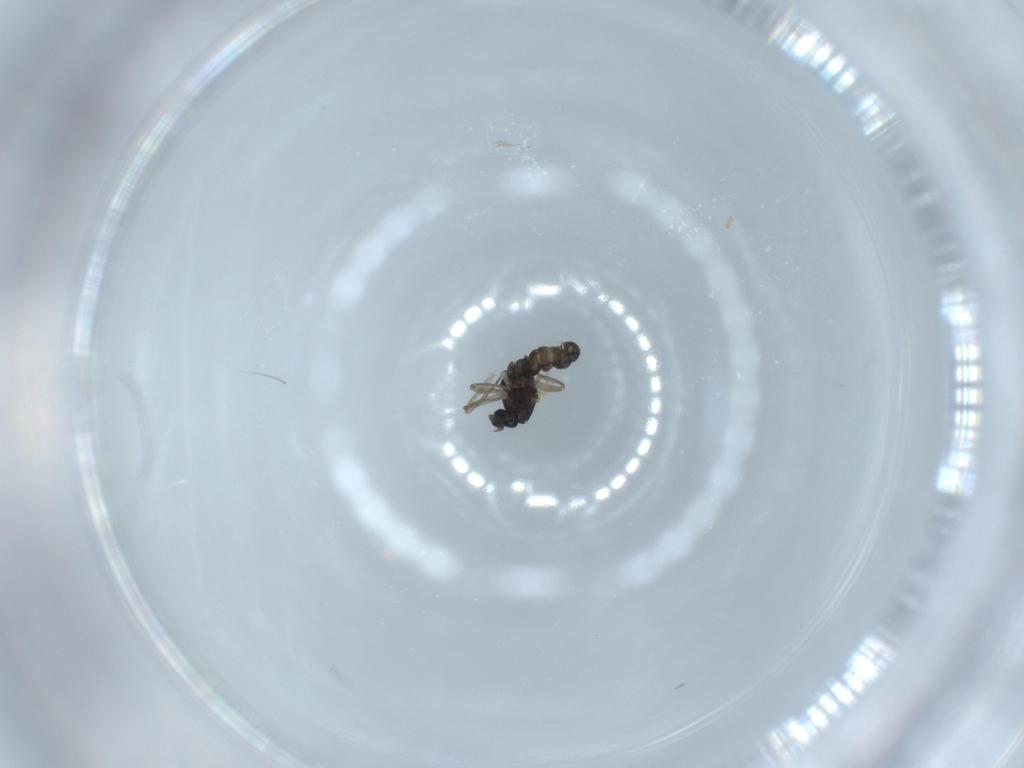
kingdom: Animalia
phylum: Arthropoda
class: Insecta
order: Diptera
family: Cecidomyiidae
